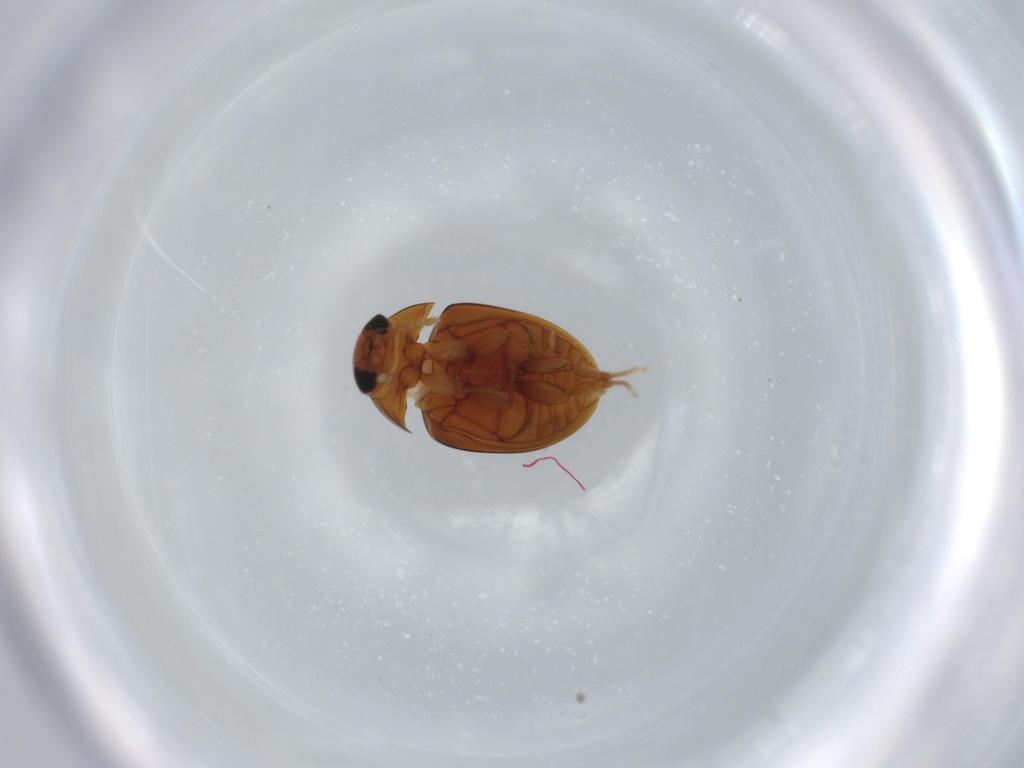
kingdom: Animalia
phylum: Arthropoda
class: Insecta
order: Coleoptera
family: Phalacridae
